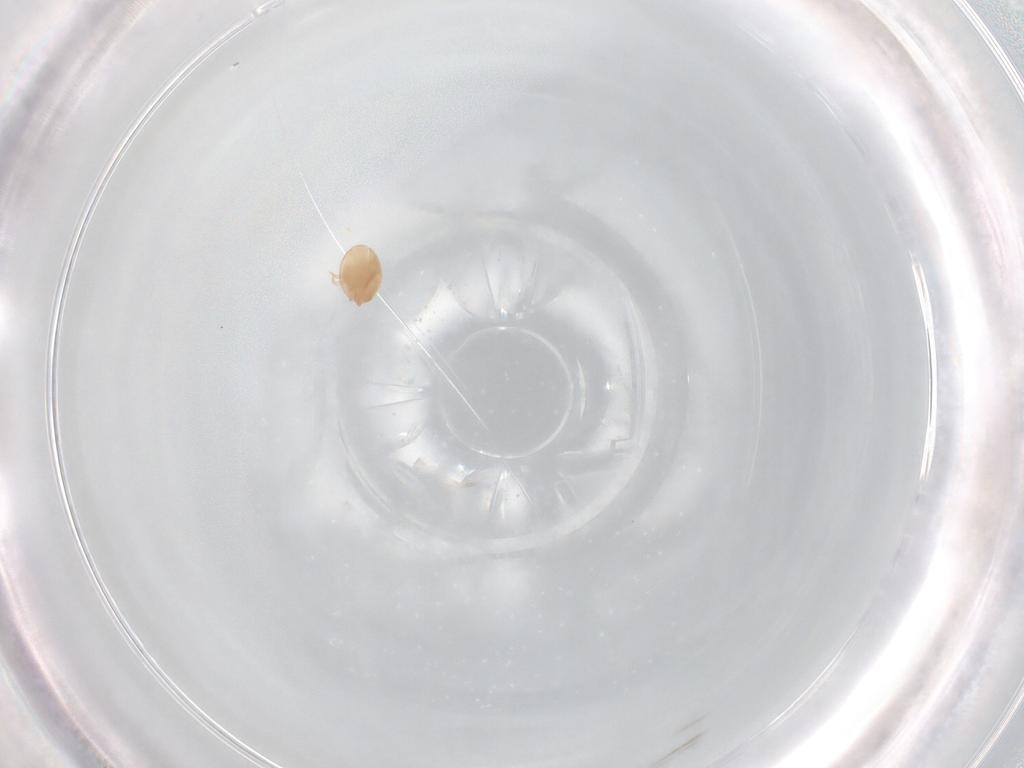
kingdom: Animalia
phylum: Arthropoda
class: Arachnida
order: Mesostigmata
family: Trematuridae
